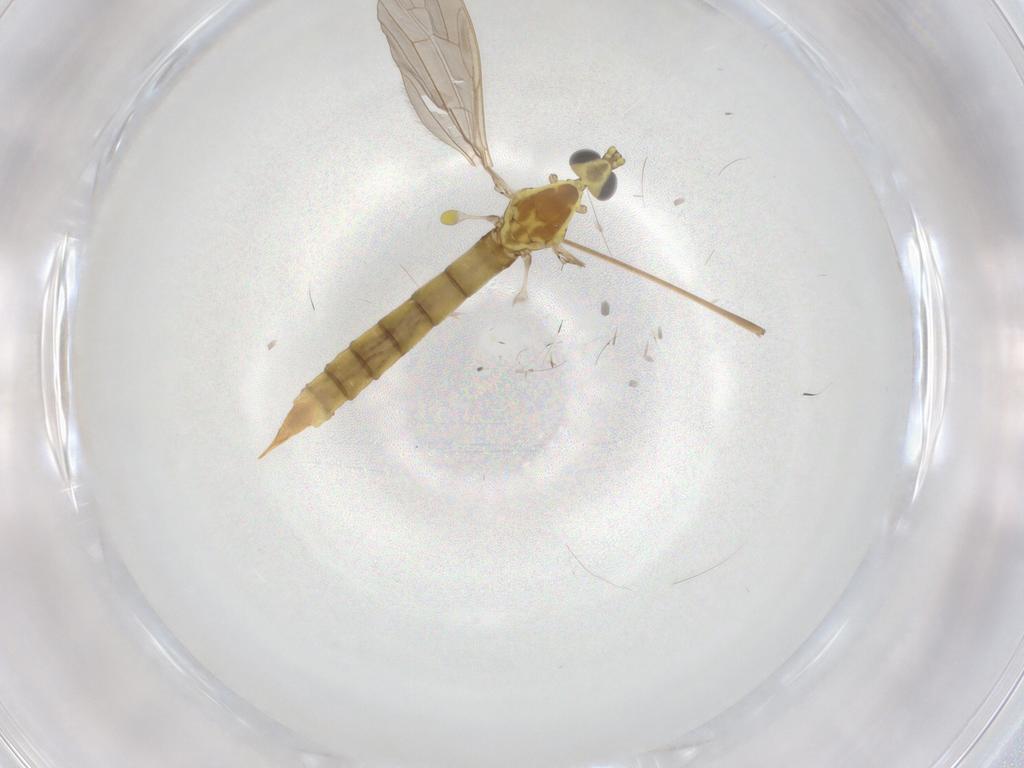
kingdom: Animalia
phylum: Arthropoda
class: Insecta
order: Diptera
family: Limoniidae
